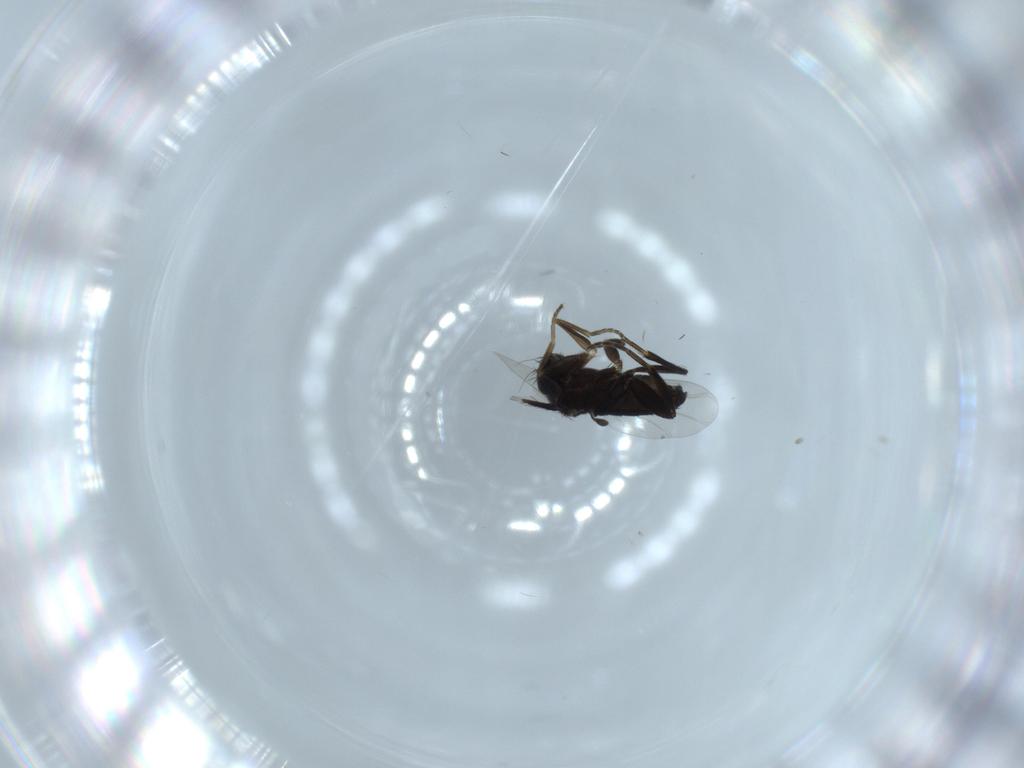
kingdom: Animalia
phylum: Arthropoda
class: Insecta
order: Diptera
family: Phoridae
